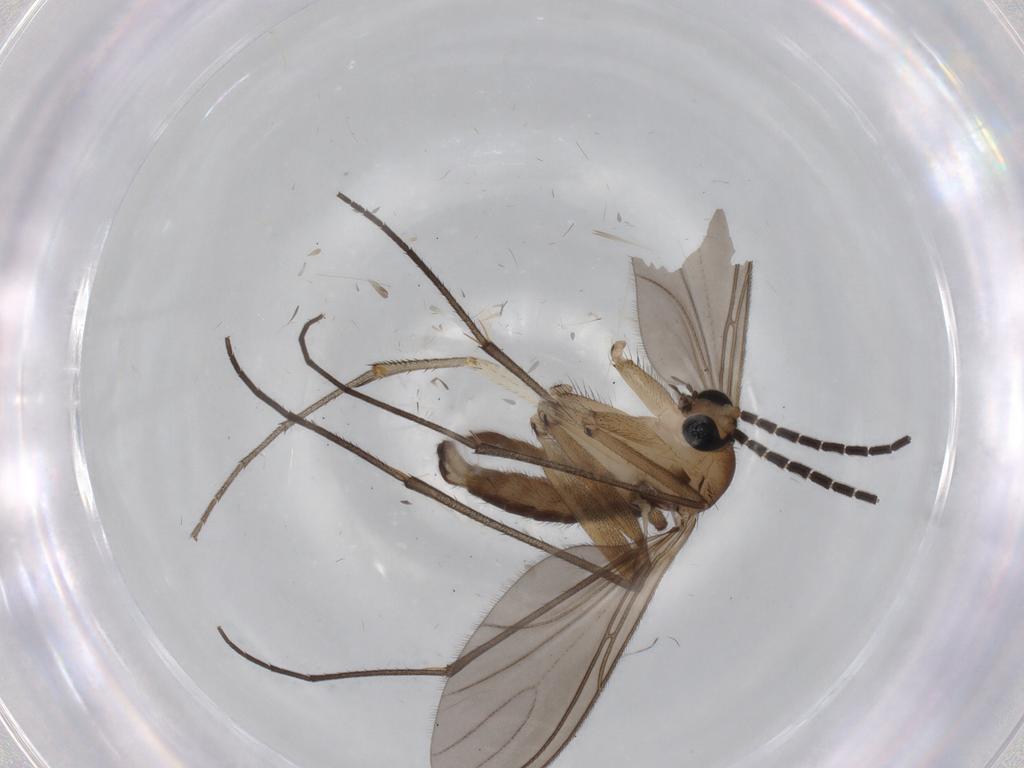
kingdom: Animalia
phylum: Arthropoda
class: Insecta
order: Diptera
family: Mycetophilidae
